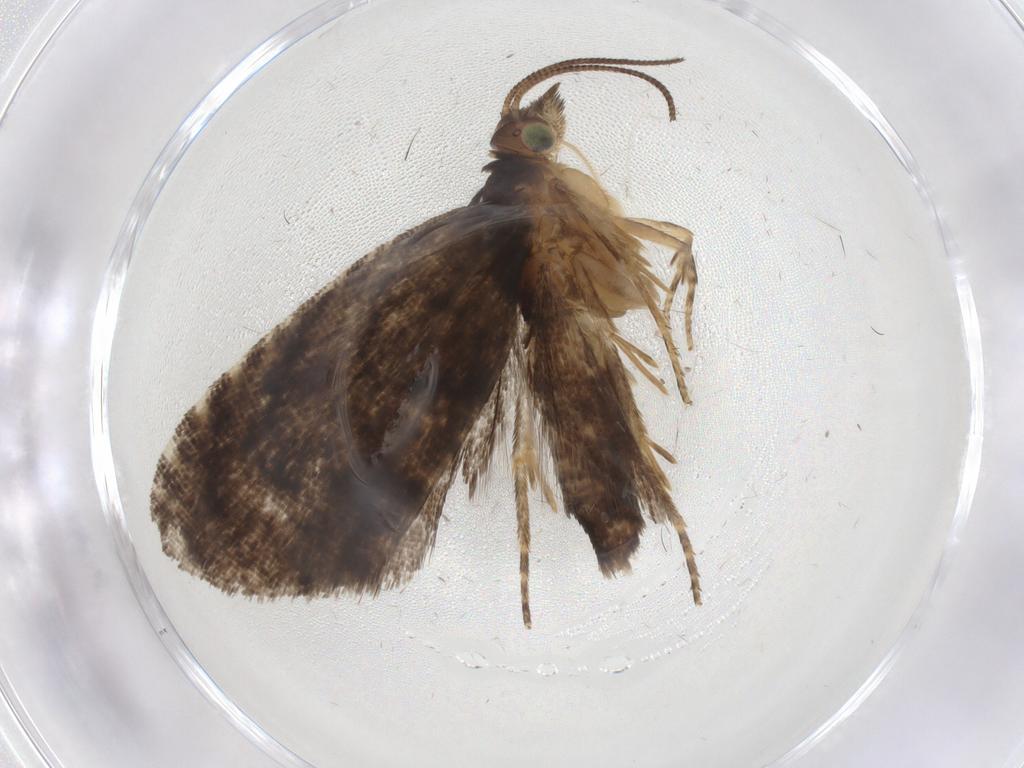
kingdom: Animalia
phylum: Arthropoda
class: Insecta
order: Lepidoptera
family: Tortricidae
